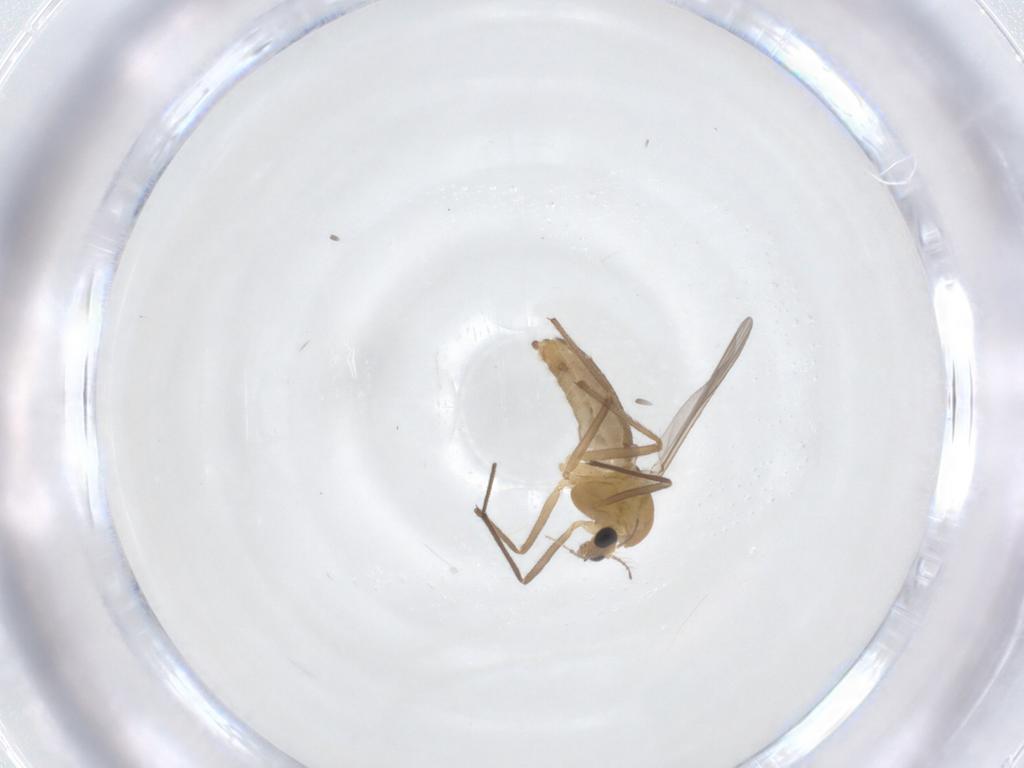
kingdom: Animalia
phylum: Arthropoda
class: Insecta
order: Diptera
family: Chironomidae
